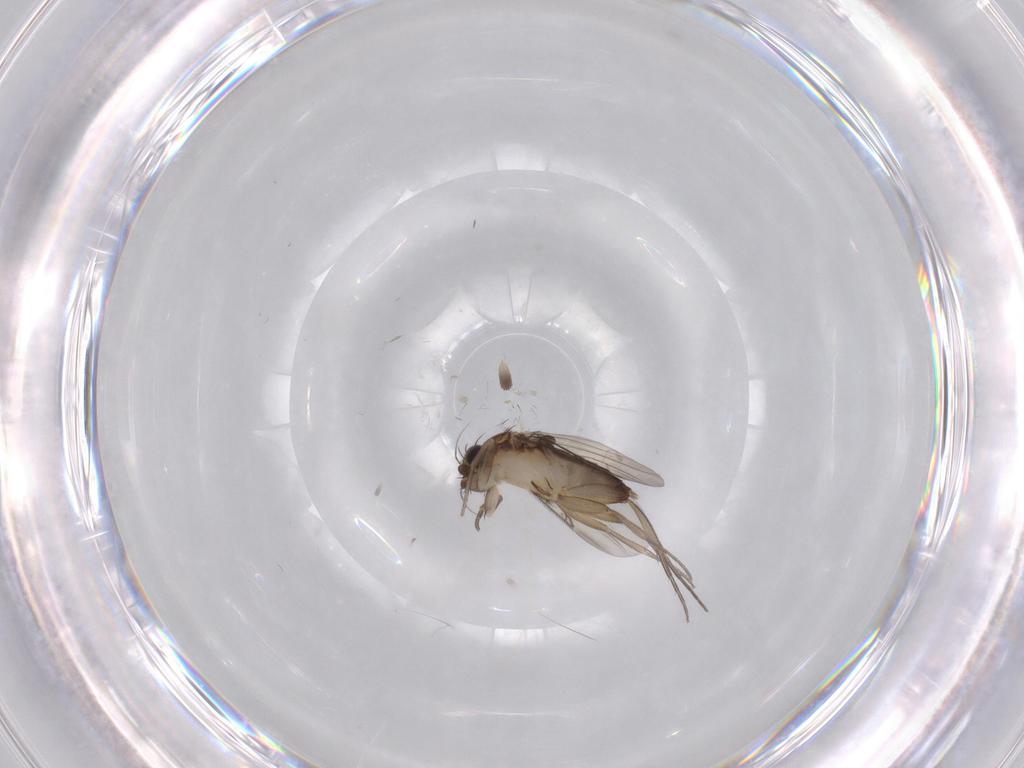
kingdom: Animalia
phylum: Arthropoda
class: Insecta
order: Diptera
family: Phoridae
